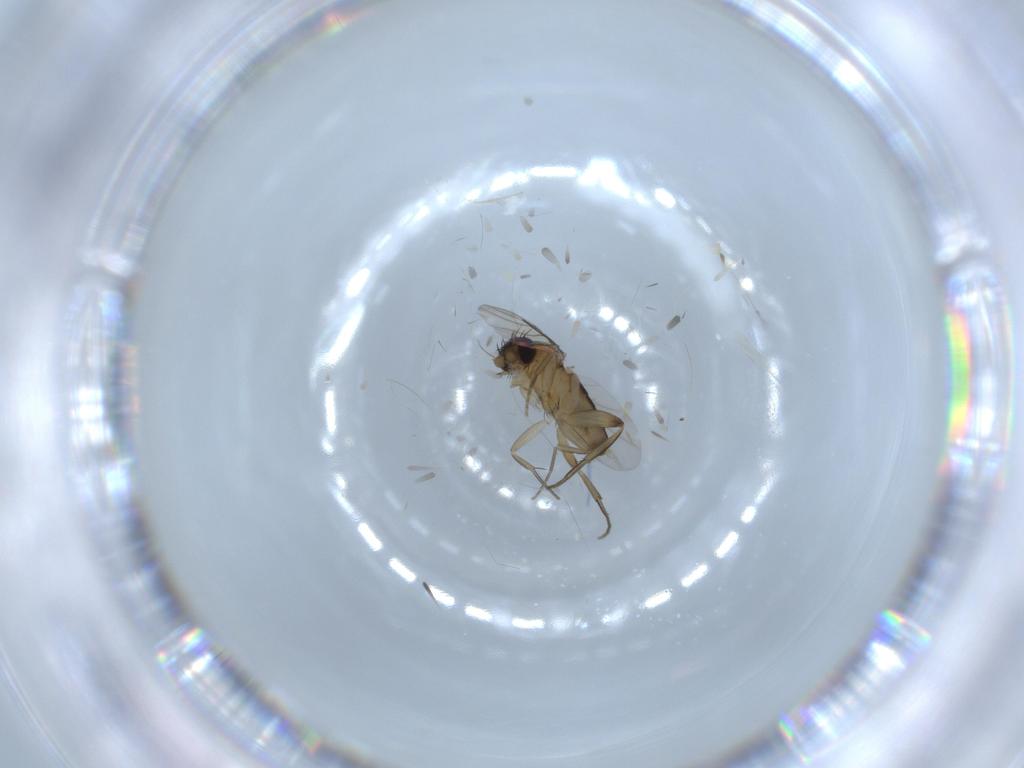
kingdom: Animalia
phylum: Arthropoda
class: Insecta
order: Diptera
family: Phoridae
